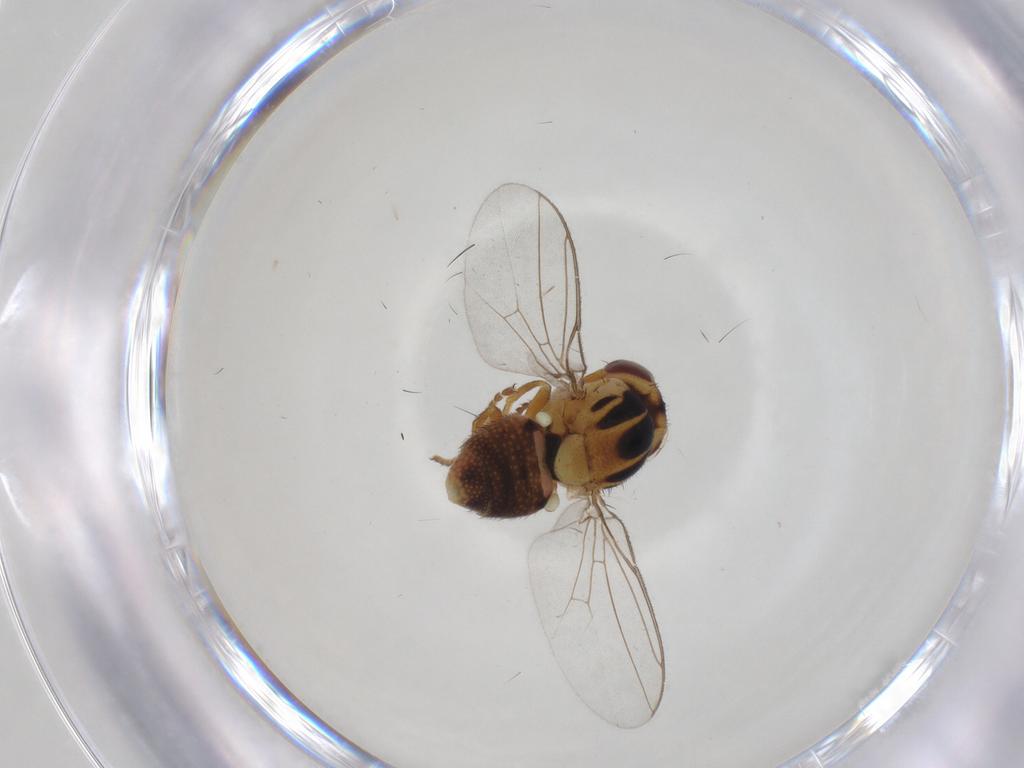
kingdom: Animalia
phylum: Arthropoda
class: Insecta
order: Diptera
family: Chloropidae
